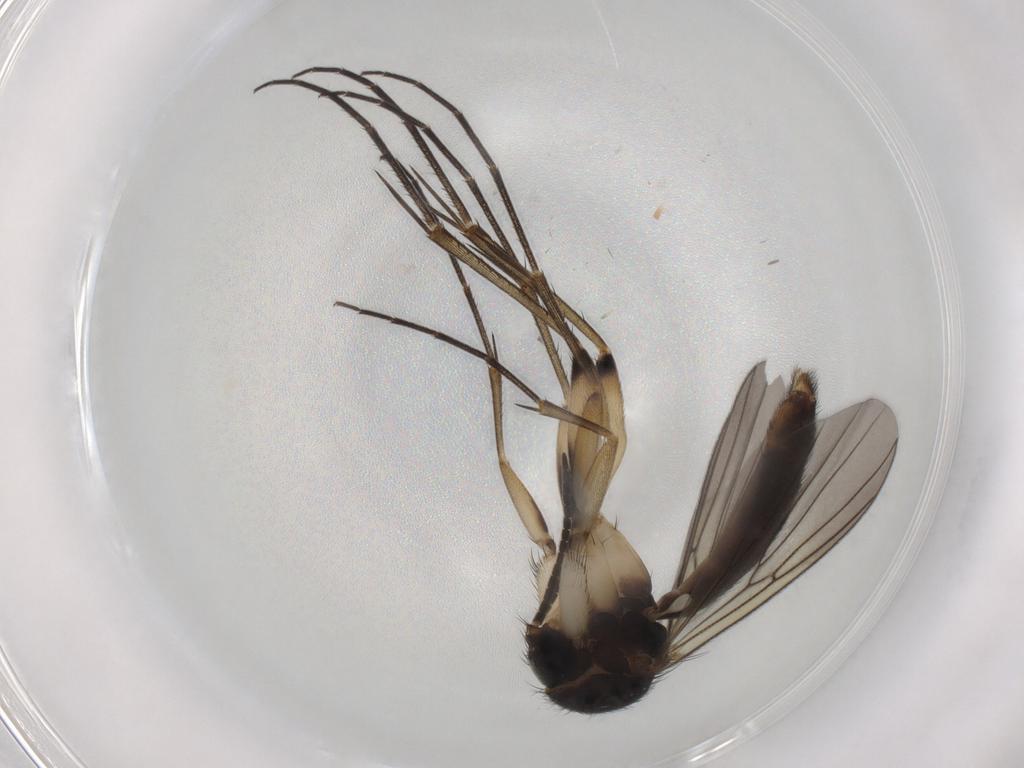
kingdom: Animalia
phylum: Arthropoda
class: Insecta
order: Diptera
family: Mycetophilidae
